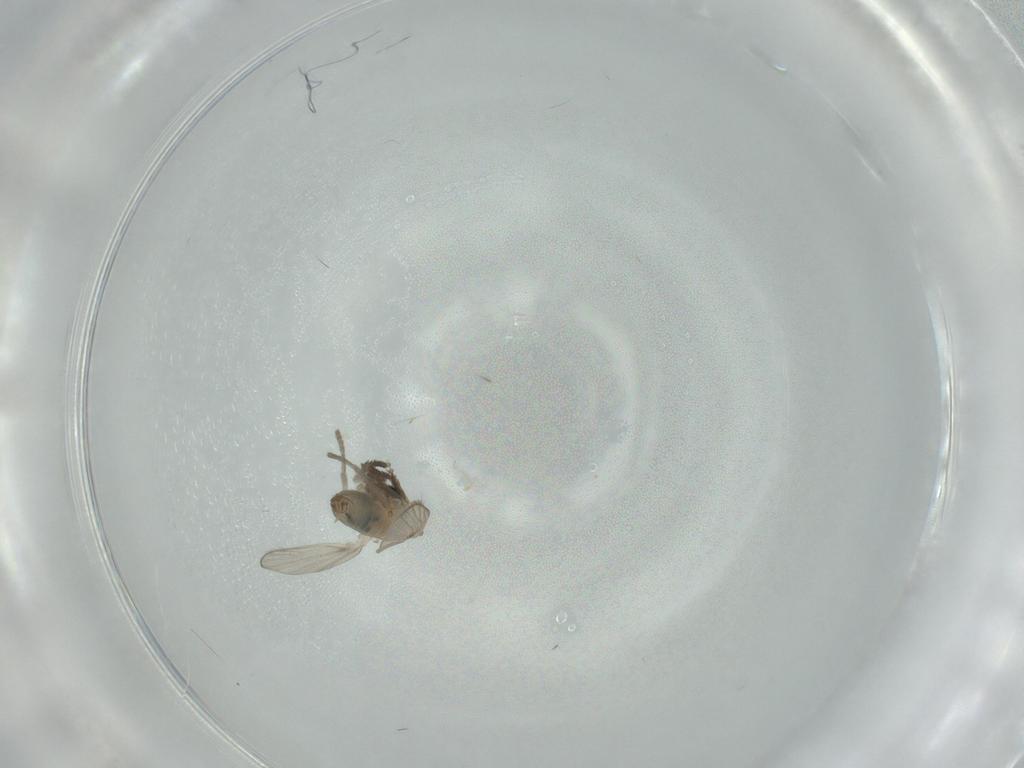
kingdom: Animalia
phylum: Arthropoda
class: Insecta
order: Diptera
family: Psychodidae
